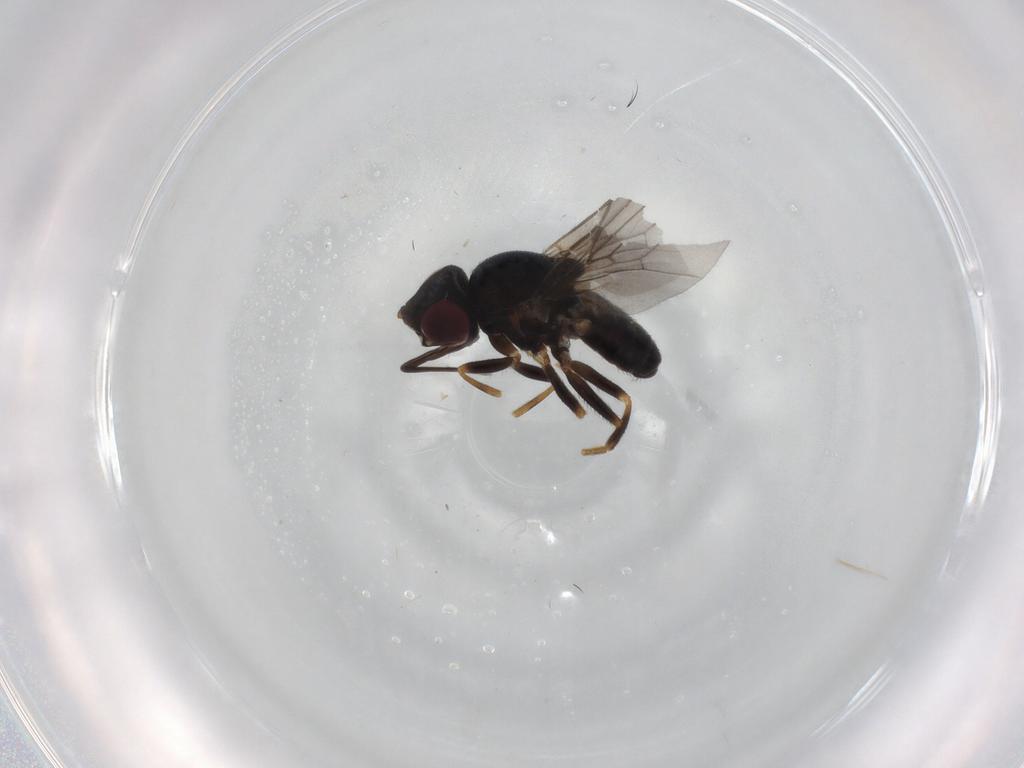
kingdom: Animalia
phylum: Arthropoda
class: Insecta
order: Diptera
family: Chloropidae
